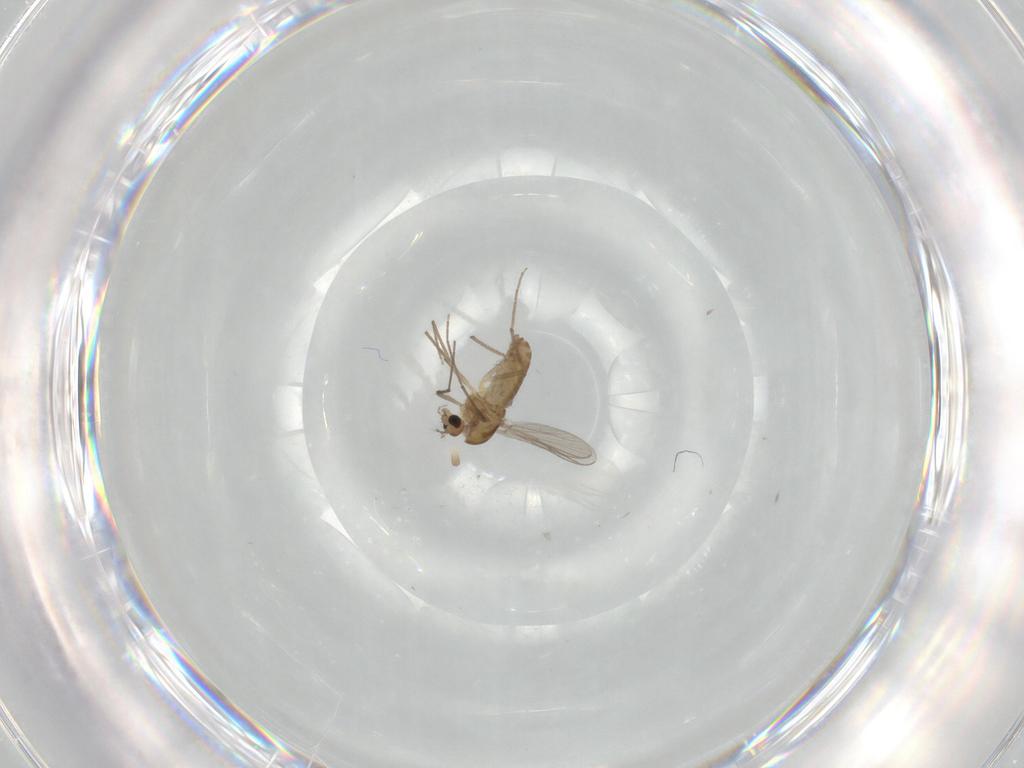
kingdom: Animalia
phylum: Arthropoda
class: Insecta
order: Diptera
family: Chironomidae
